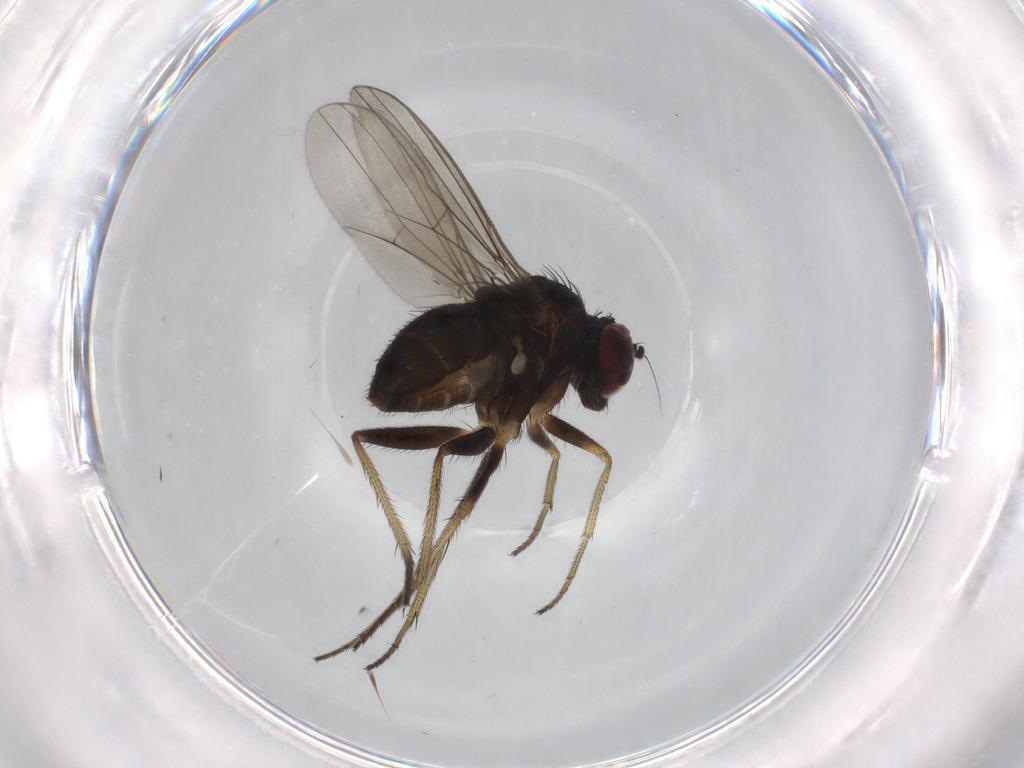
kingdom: Animalia
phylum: Arthropoda
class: Insecta
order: Diptera
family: Dolichopodidae
